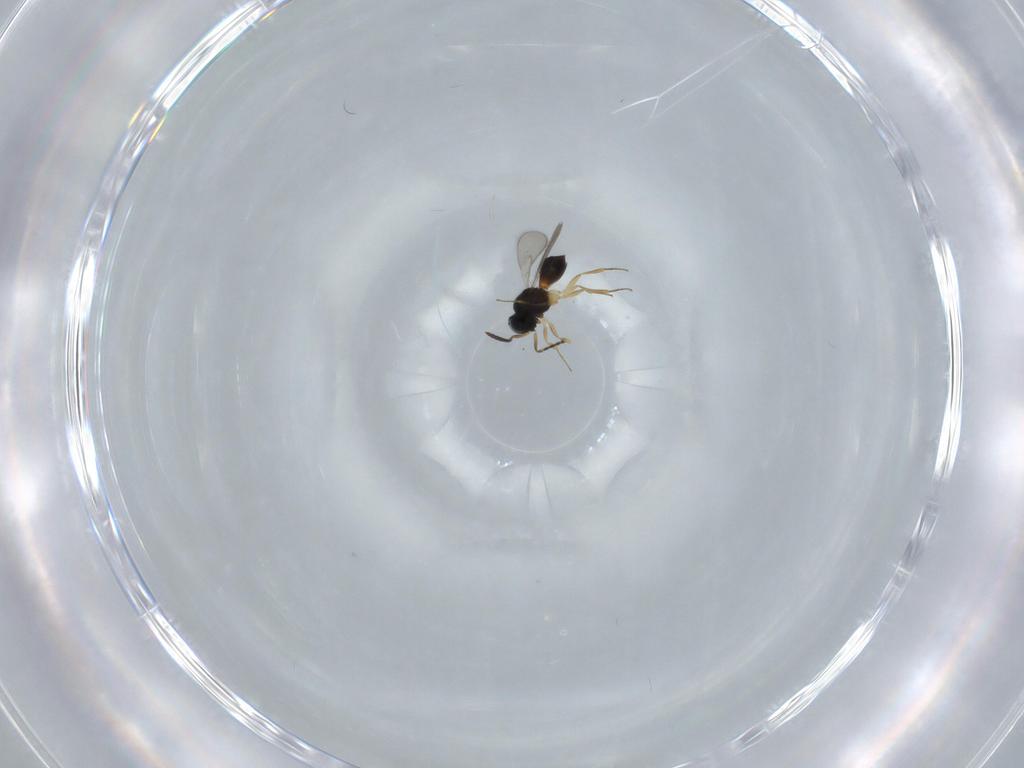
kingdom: Animalia
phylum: Arthropoda
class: Insecta
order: Hymenoptera
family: Scelionidae
